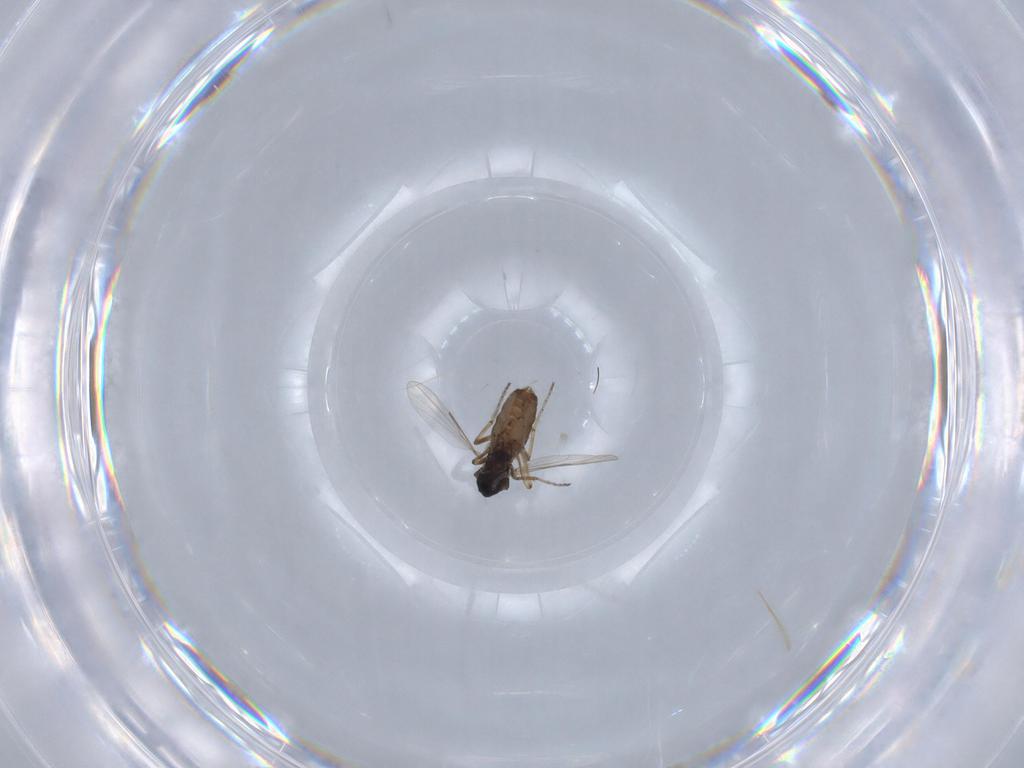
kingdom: Animalia
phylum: Arthropoda
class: Insecta
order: Diptera
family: Ceratopogonidae
